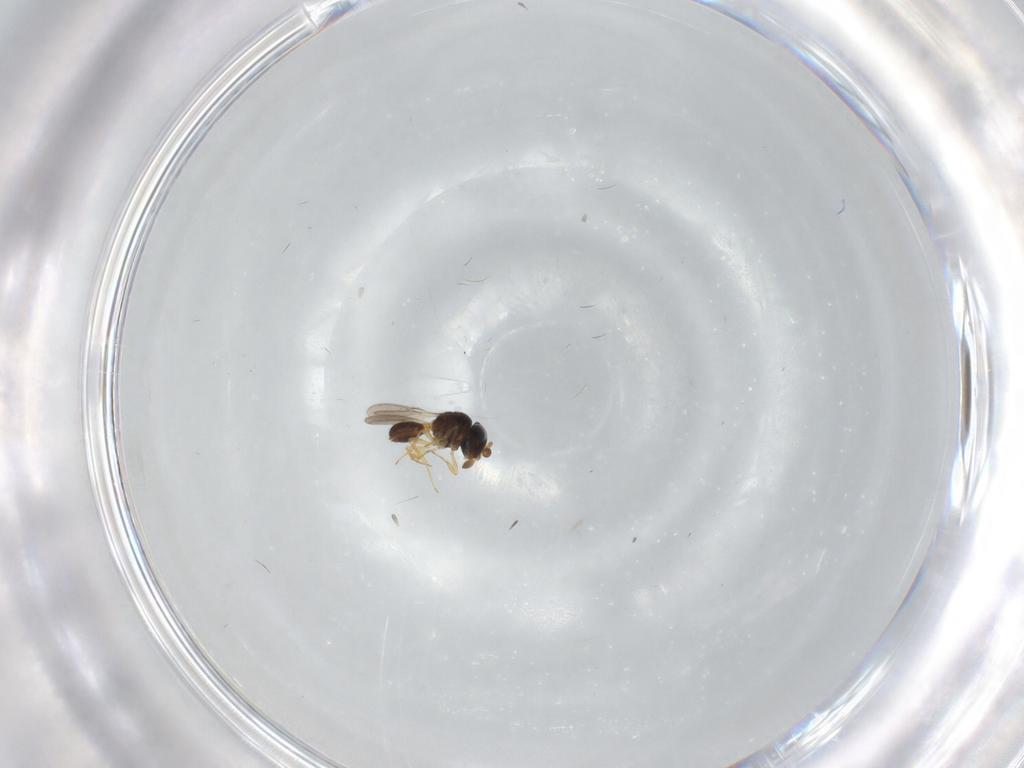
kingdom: Animalia
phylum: Arthropoda
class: Insecta
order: Hymenoptera
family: Scelionidae
